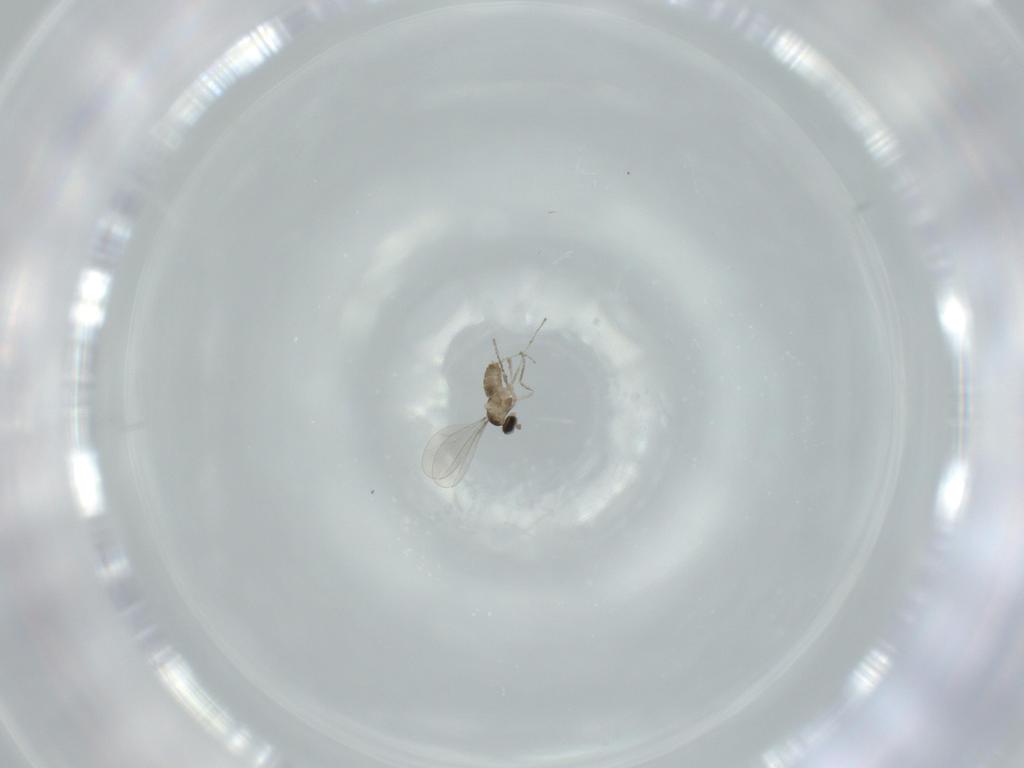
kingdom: Animalia
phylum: Arthropoda
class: Insecta
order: Diptera
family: Cecidomyiidae
